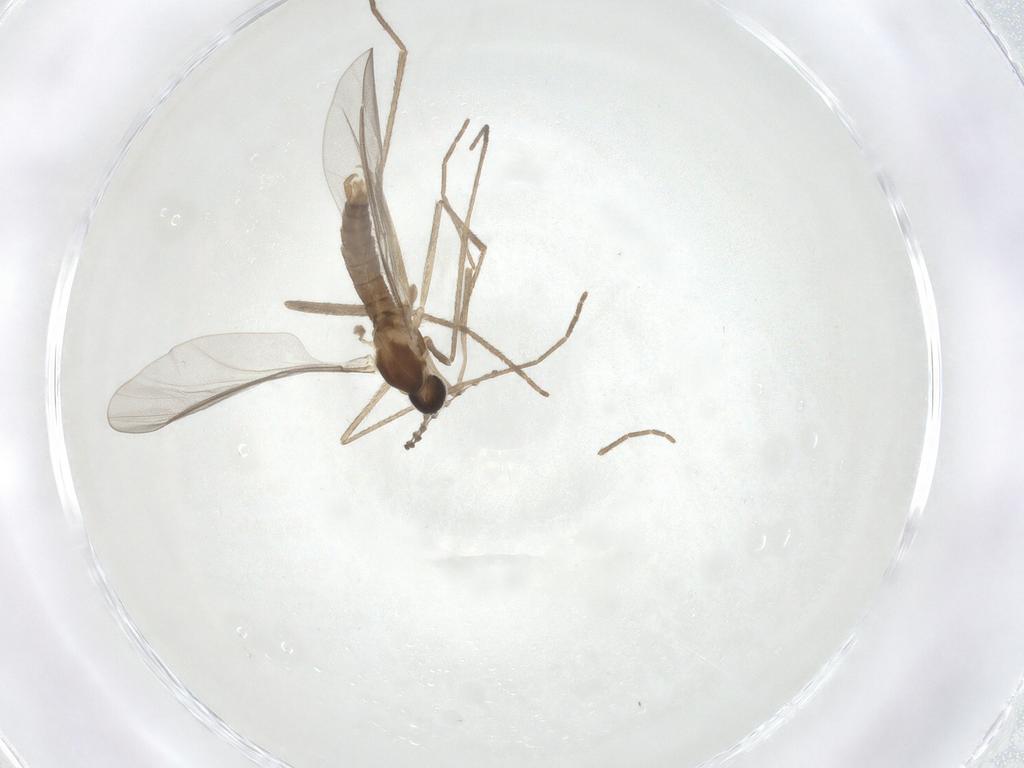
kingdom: Animalia
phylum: Arthropoda
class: Insecta
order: Diptera
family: Cecidomyiidae
